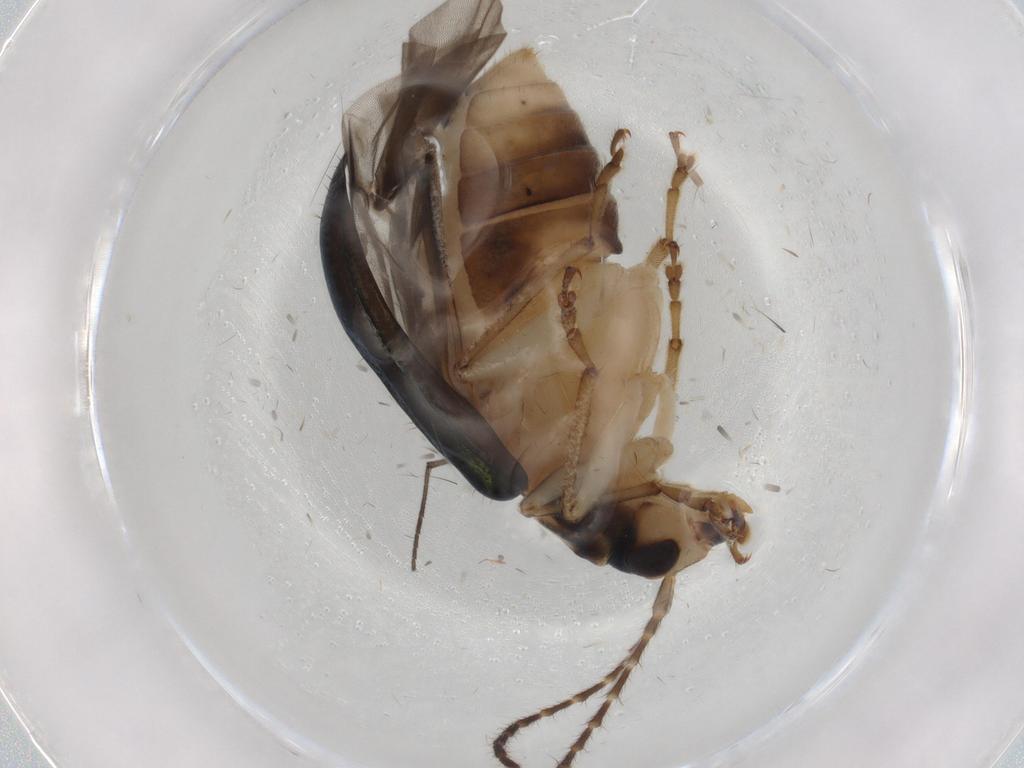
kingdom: Animalia
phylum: Arthropoda
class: Insecta
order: Coleoptera
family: Chrysomelidae
